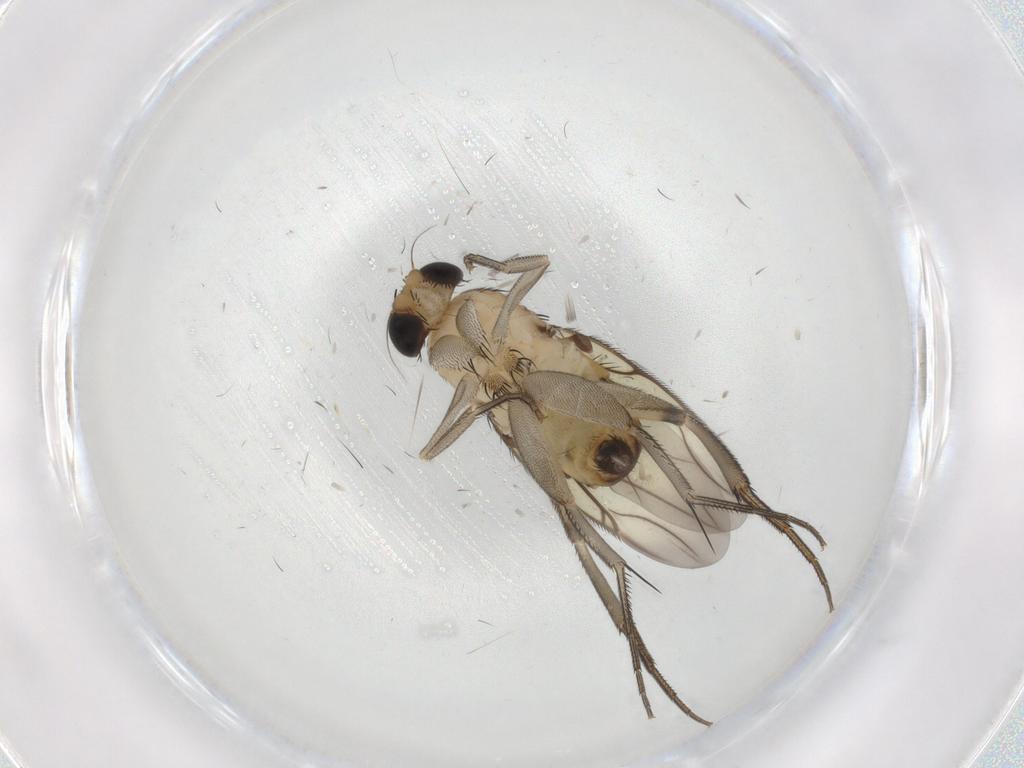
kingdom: Animalia
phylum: Arthropoda
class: Insecta
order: Diptera
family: Phoridae
